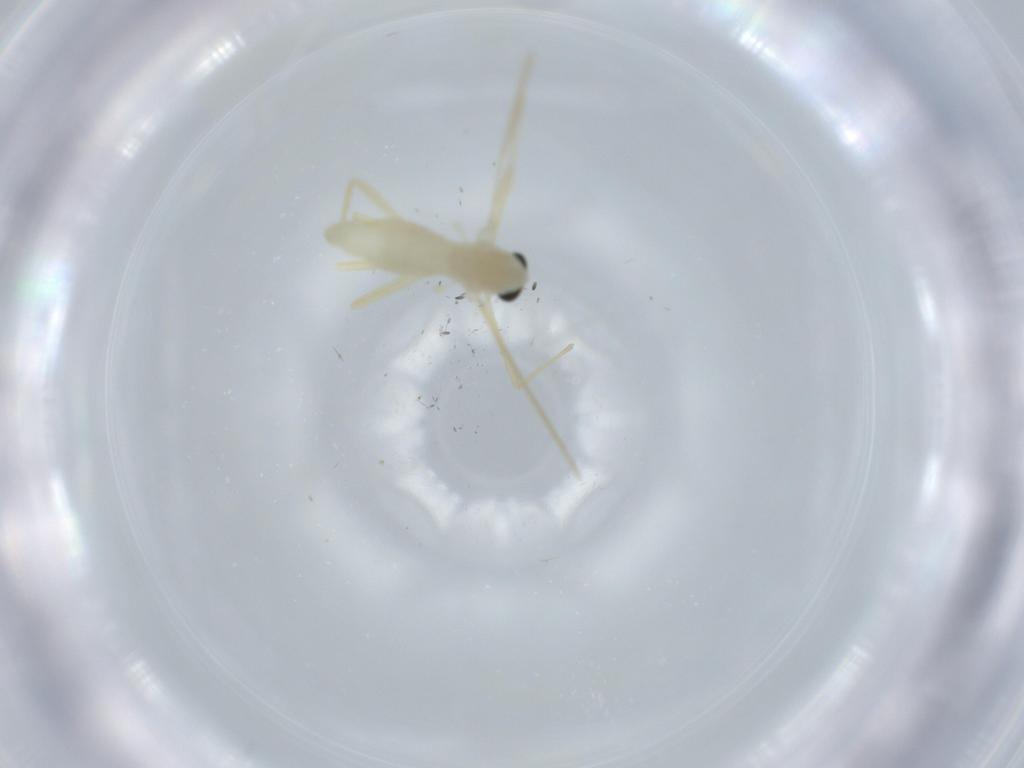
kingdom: Animalia
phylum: Arthropoda
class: Insecta
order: Diptera
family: Chironomidae
